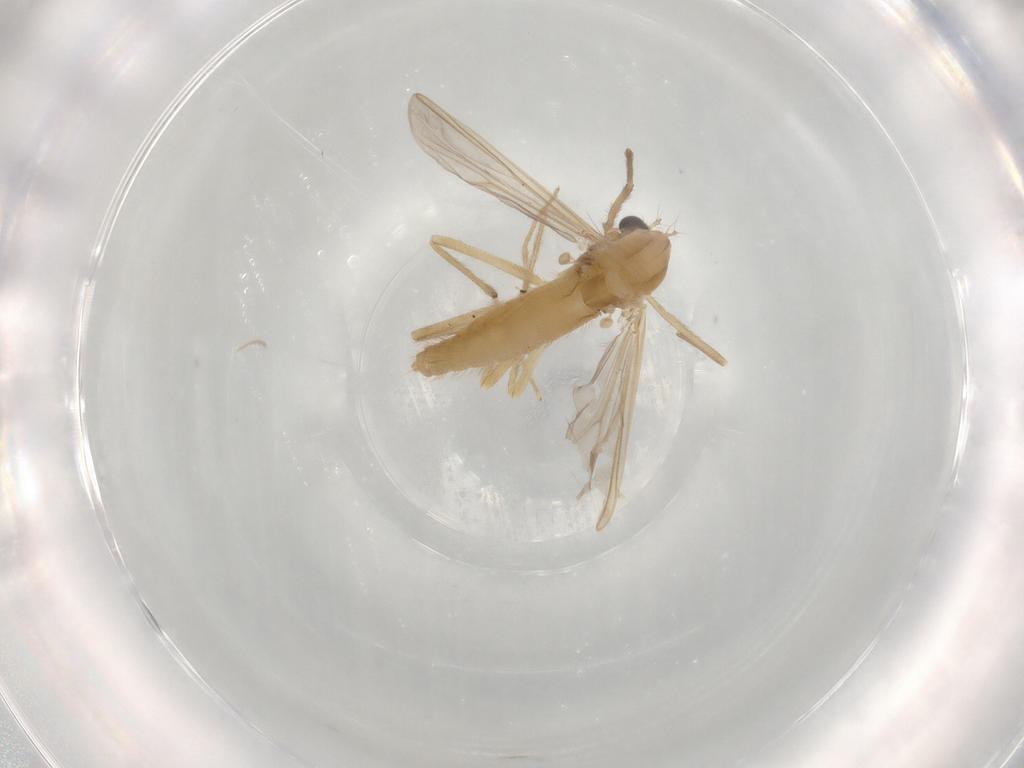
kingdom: Animalia
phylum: Arthropoda
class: Insecta
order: Diptera
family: Chironomidae
